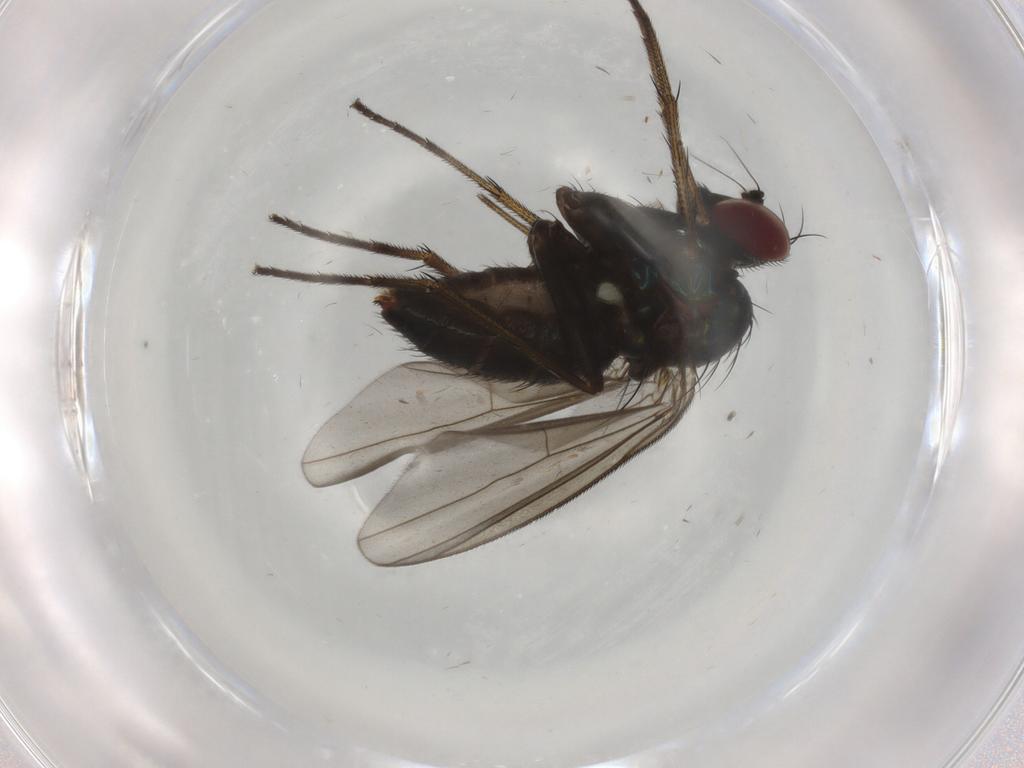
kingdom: Animalia
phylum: Arthropoda
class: Insecta
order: Diptera
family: Dolichopodidae
